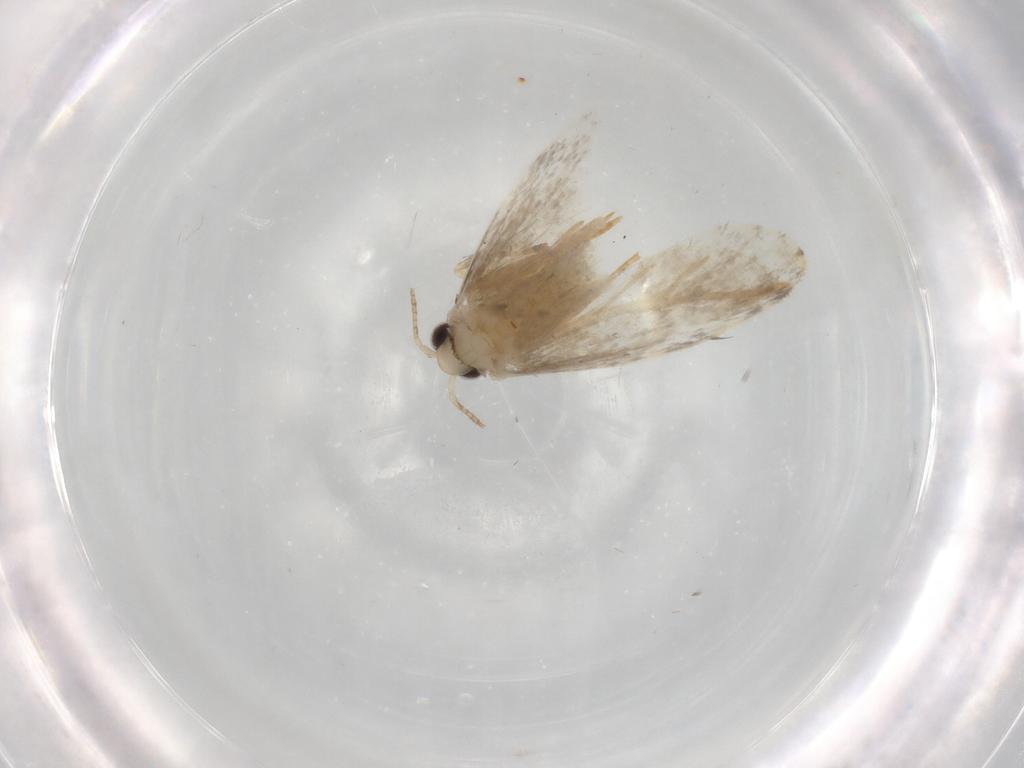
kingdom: Animalia
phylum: Arthropoda
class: Insecta
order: Lepidoptera
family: Psychidae
